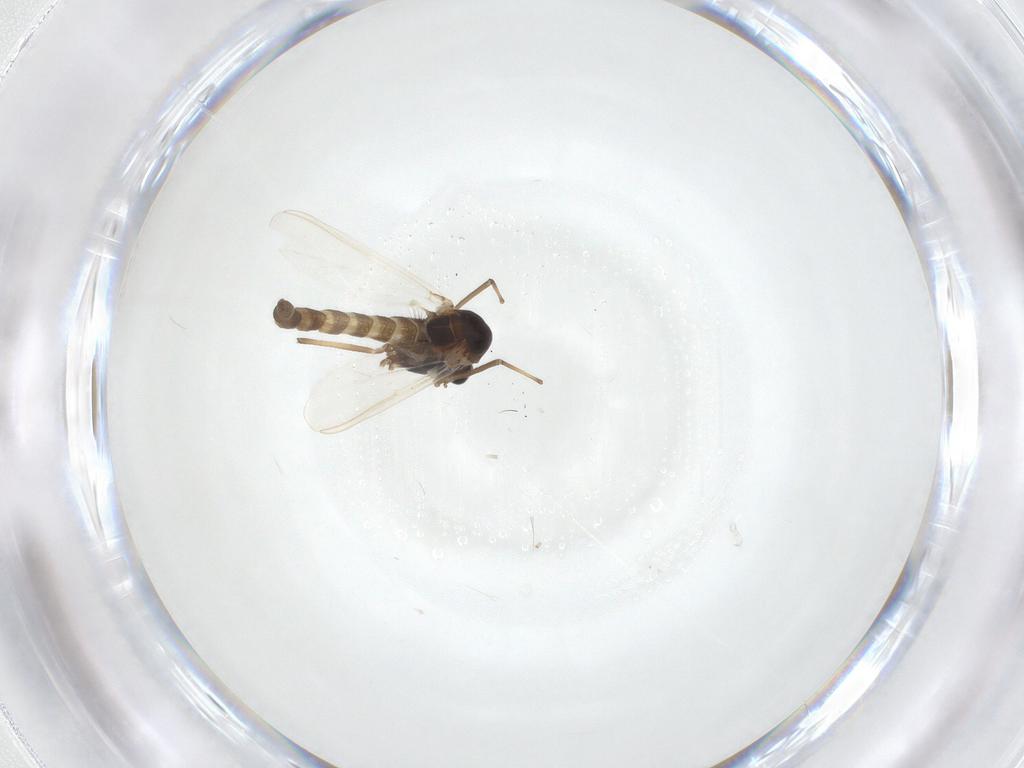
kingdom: Animalia
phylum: Arthropoda
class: Insecta
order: Diptera
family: Chironomidae
